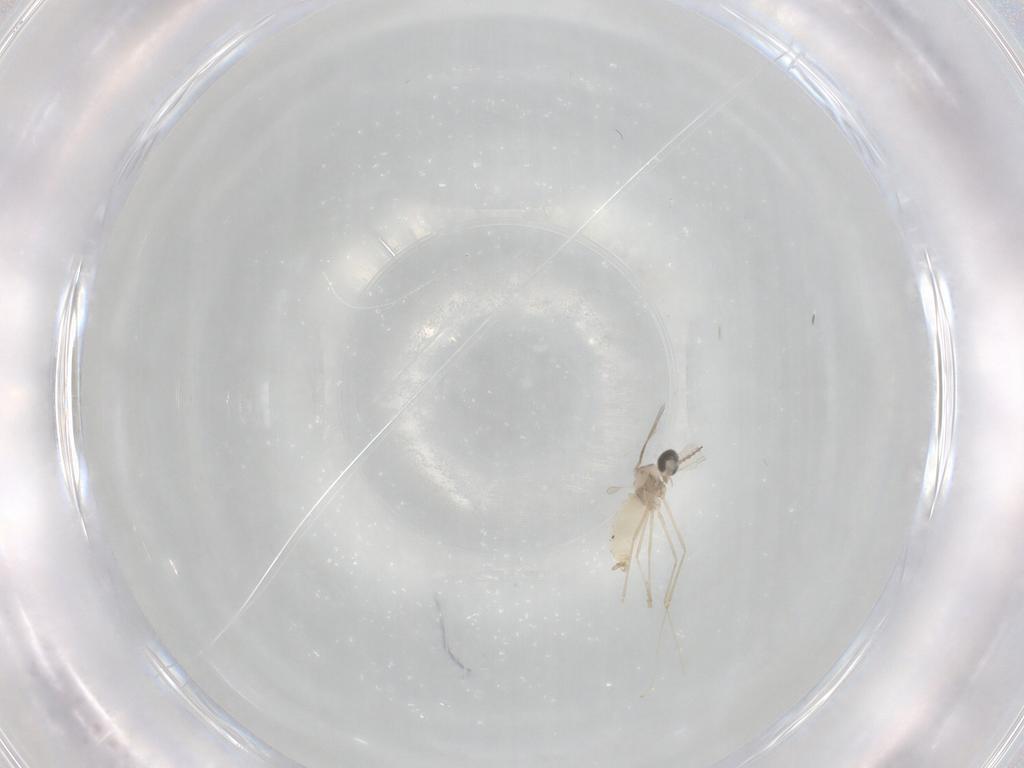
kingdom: Animalia
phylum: Arthropoda
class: Insecta
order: Diptera
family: Cecidomyiidae
